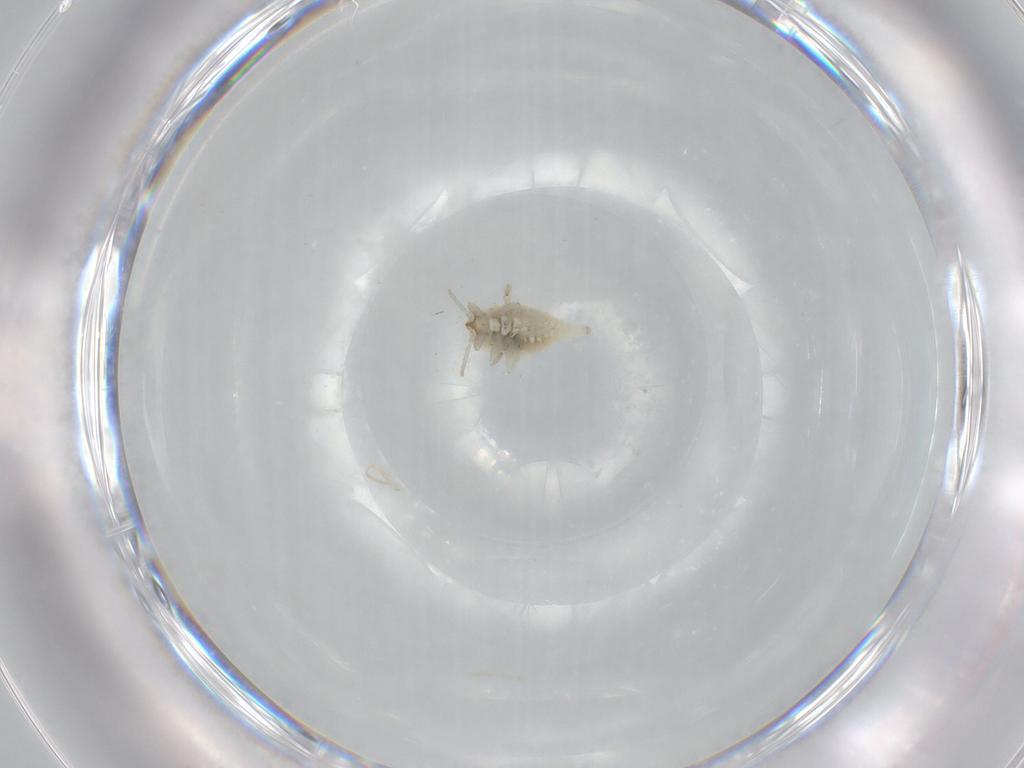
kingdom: Animalia
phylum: Arthropoda
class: Insecta
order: Neuroptera
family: Coniopterygidae
